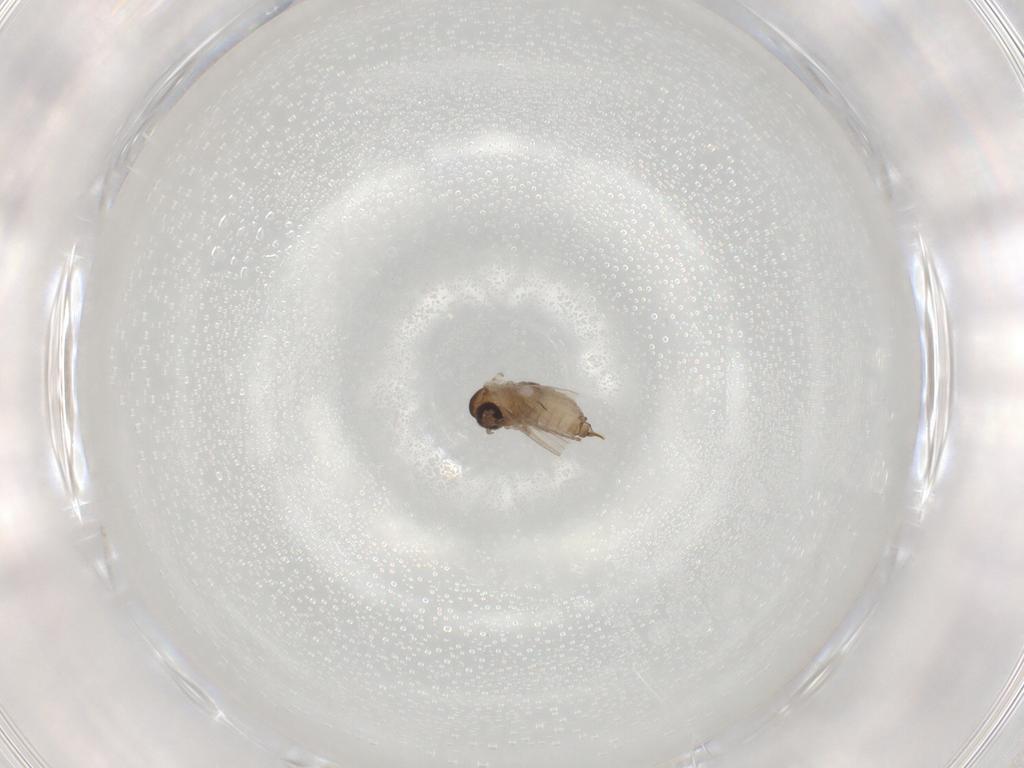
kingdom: Animalia
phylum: Arthropoda
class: Insecta
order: Diptera
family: Psychodidae
